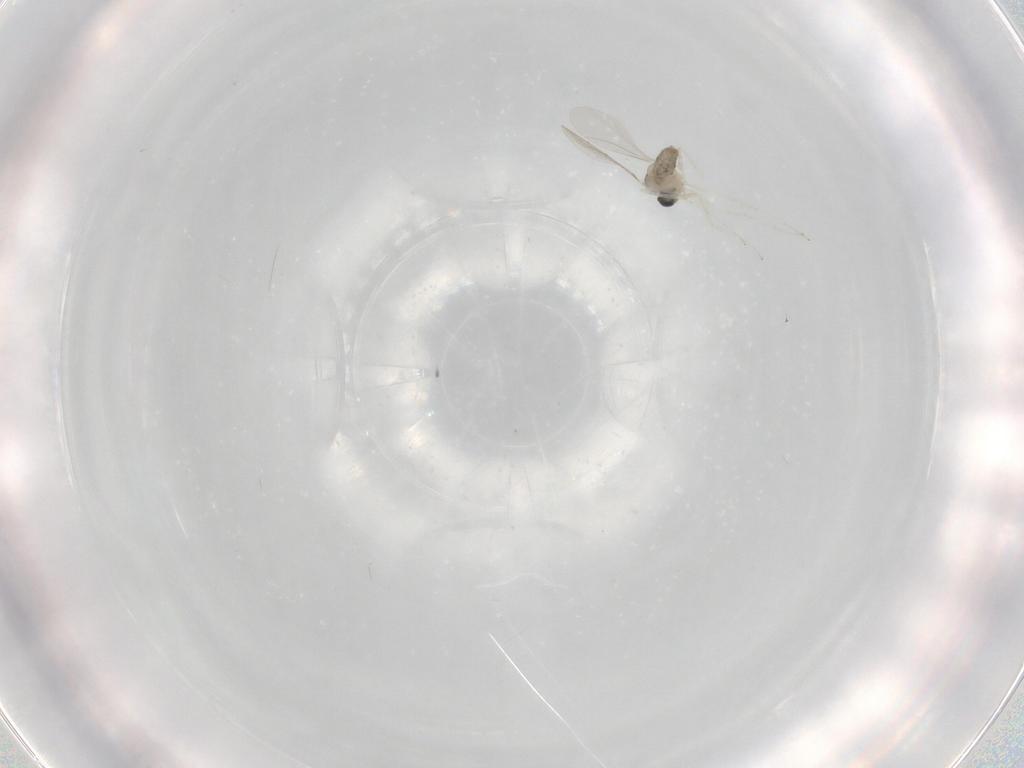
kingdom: Animalia
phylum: Arthropoda
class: Insecta
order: Diptera
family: Cecidomyiidae
